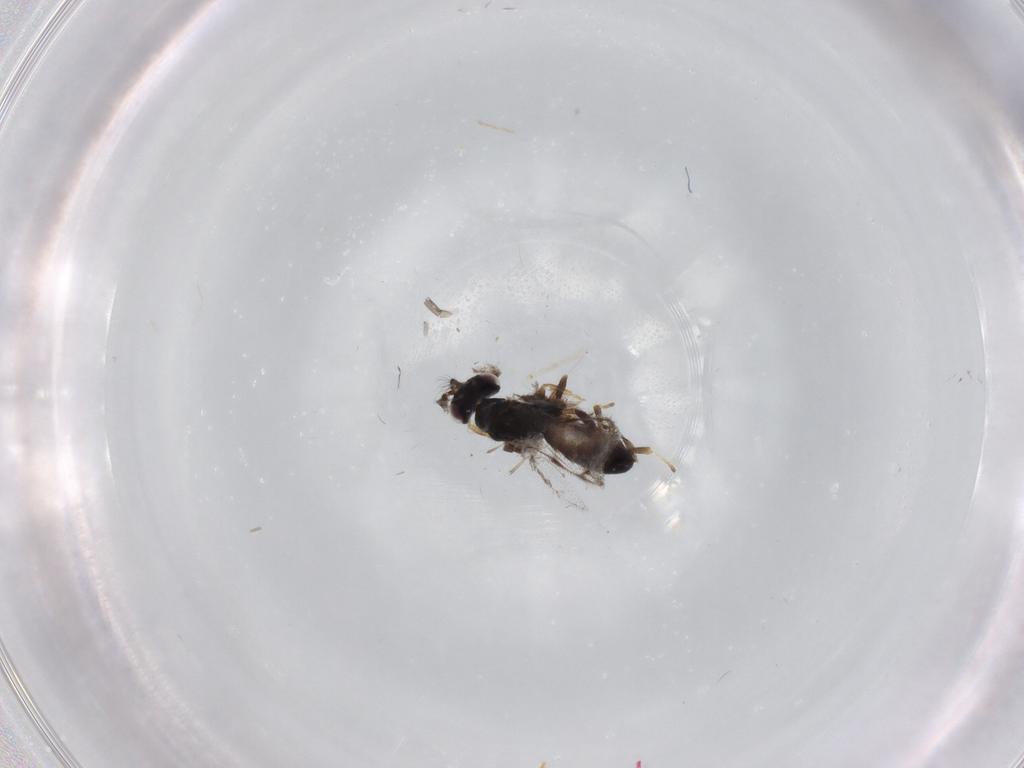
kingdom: Animalia
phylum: Arthropoda
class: Insecta
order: Hymenoptera
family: Pirenidae
